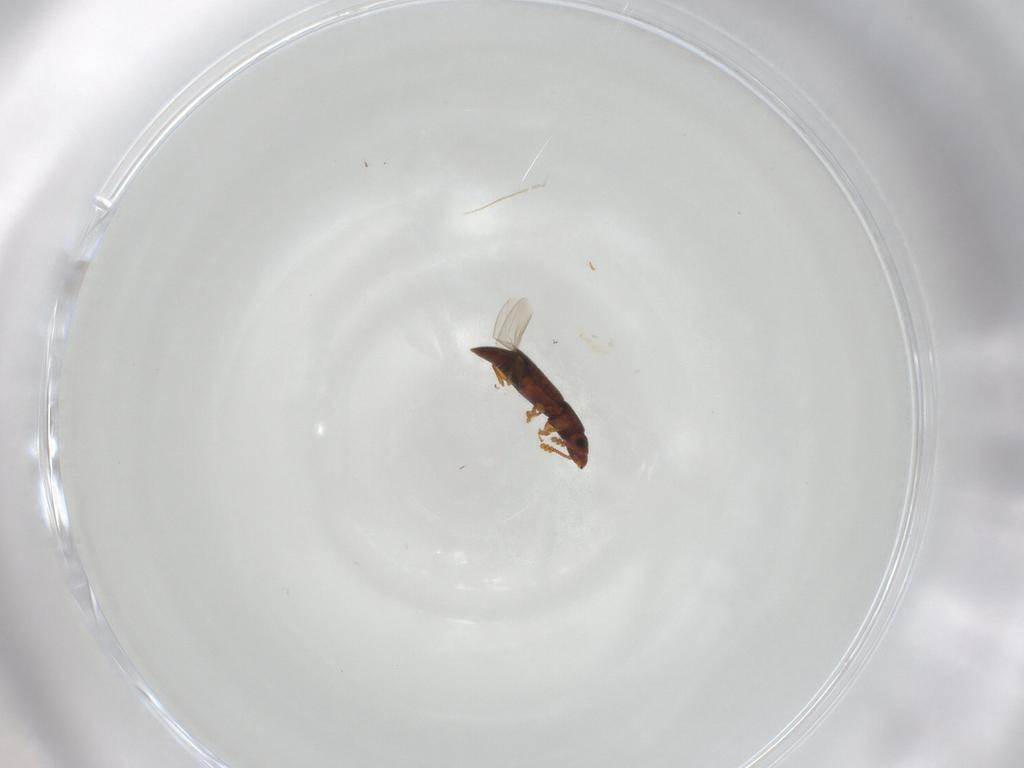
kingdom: Animalia
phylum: Arthropoda
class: Insecta
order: Coleoptera
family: Smicripidae
